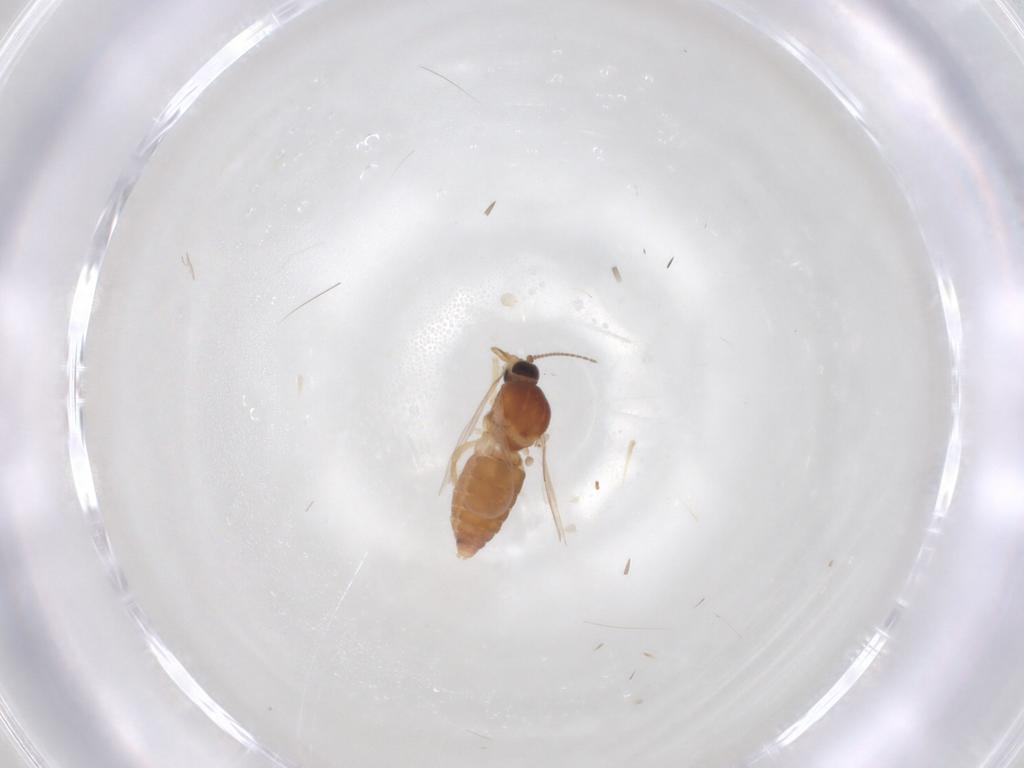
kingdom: Animalia
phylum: Arthropoda
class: Insecta
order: Diptera
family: Ceratopogonidae
